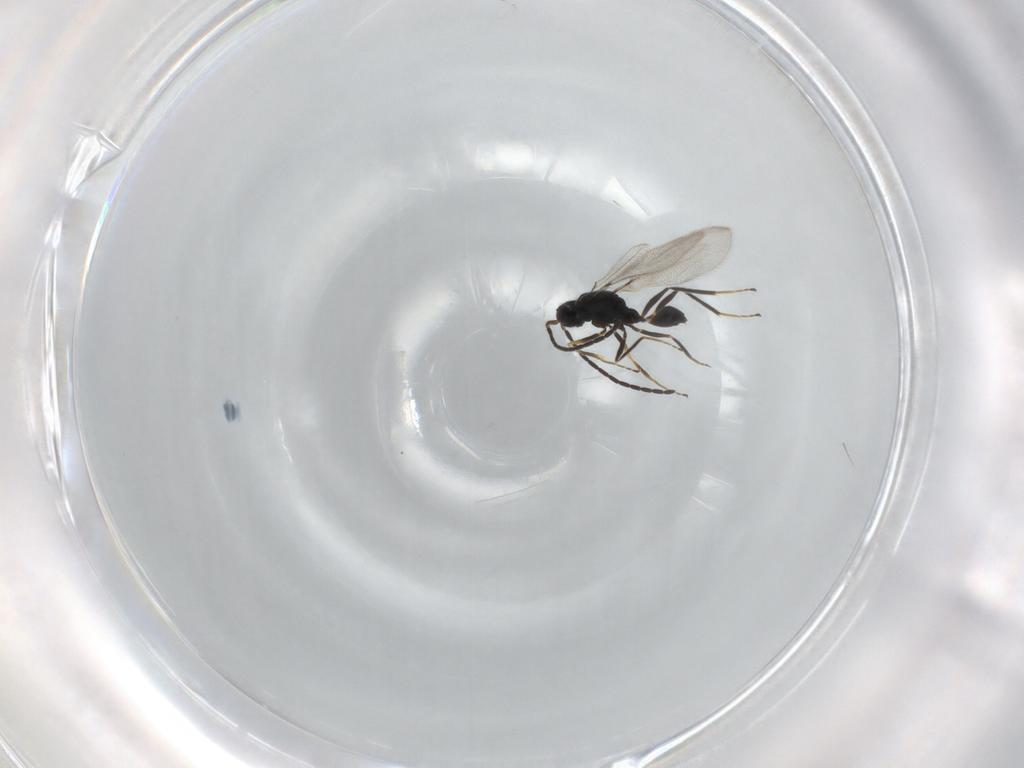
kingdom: Animalia
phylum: Arthropoda
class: Insecta
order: Hymenoptera
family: Mymaridae
